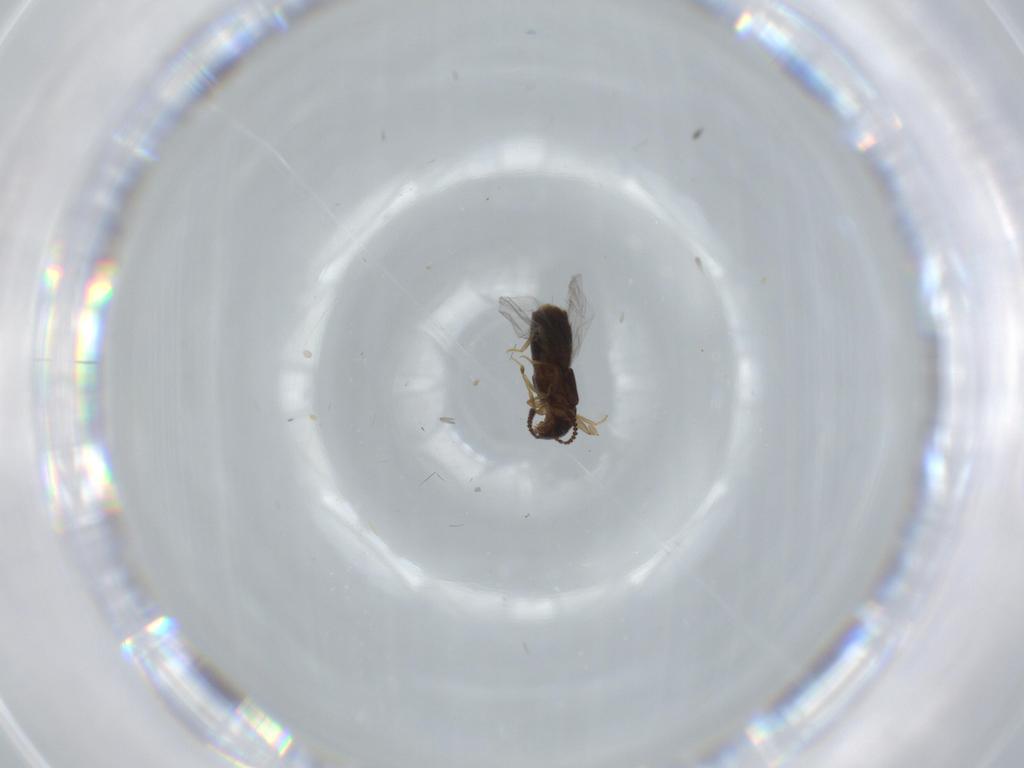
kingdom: Animalia
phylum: Arthropoda
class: Insecta
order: Coleoptera
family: Staphylinidae
